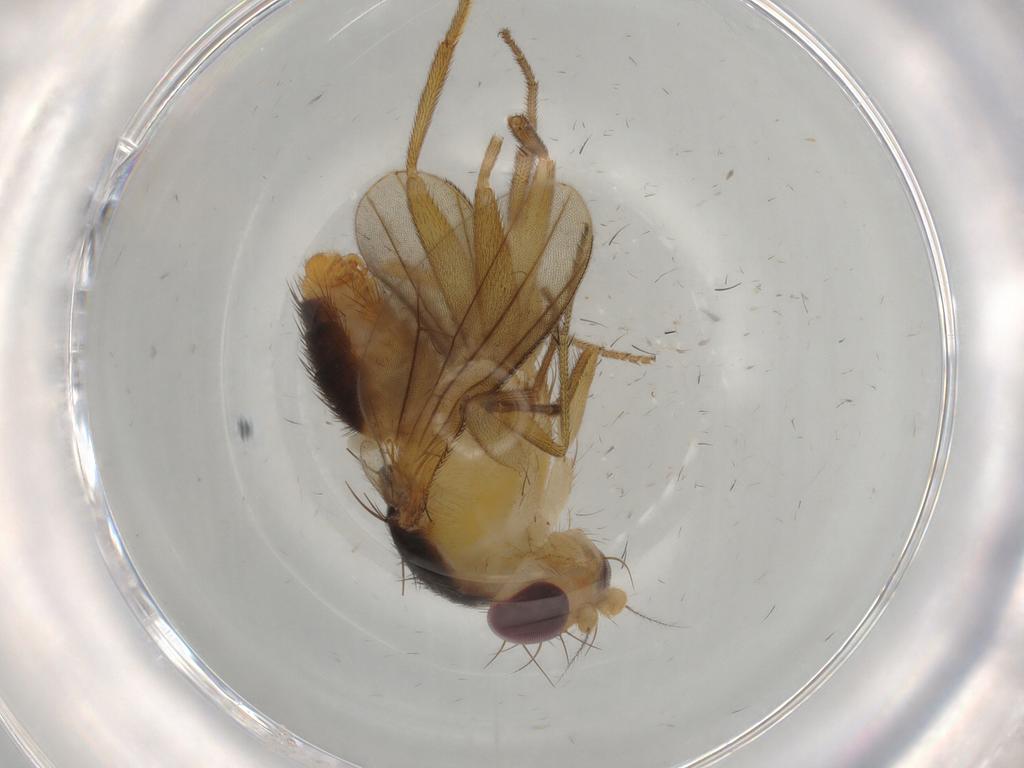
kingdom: Animalia
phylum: Arthropoda
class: Insecta
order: Diptera
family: Clusiidae
